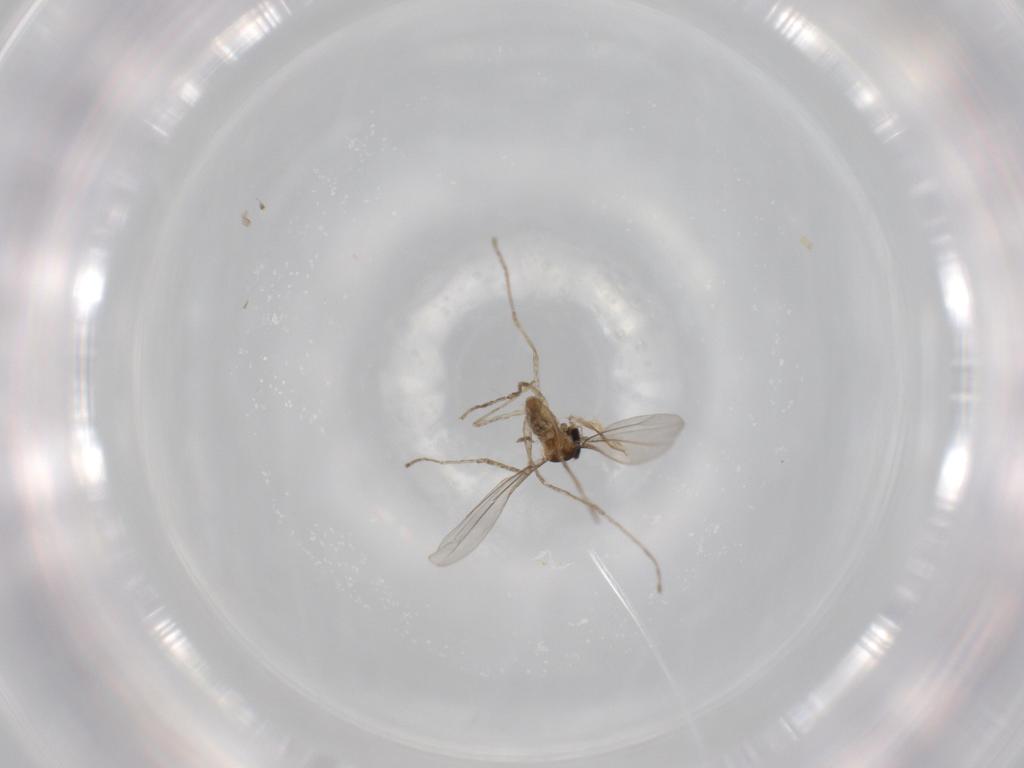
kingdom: Animalia
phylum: Arthropoda
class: Insecta
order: Diptera
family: Cecidomyiidae
